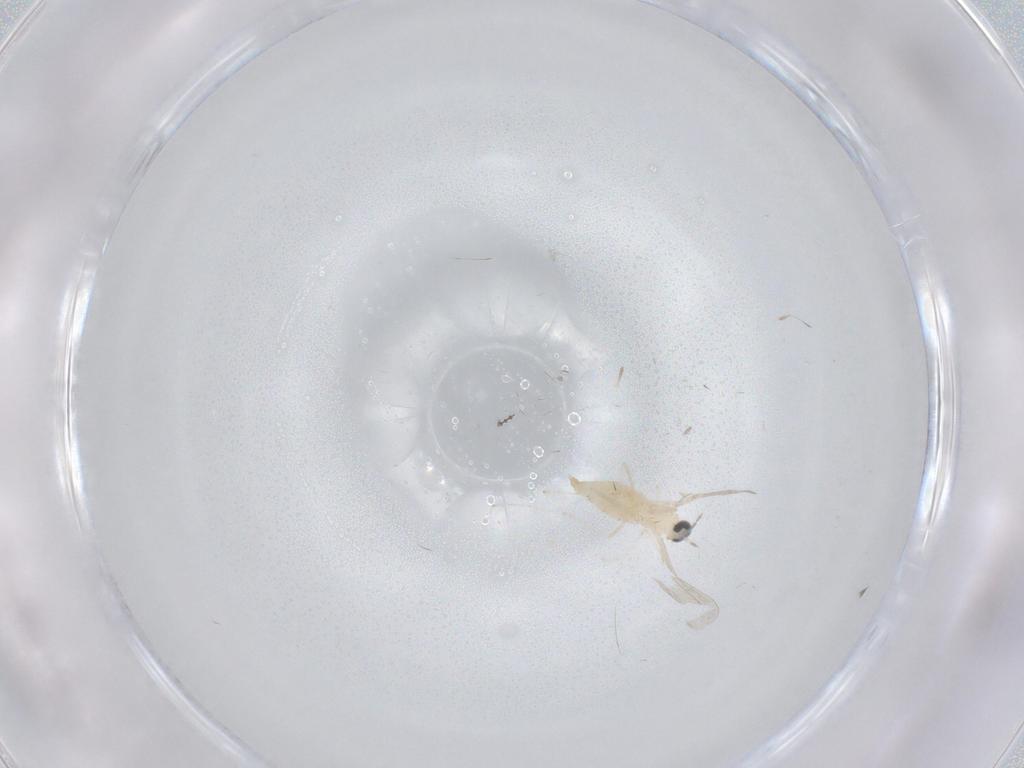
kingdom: Animalia
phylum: Arthropoda
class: Insecta
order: Diptera
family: Cecidomyiidae
